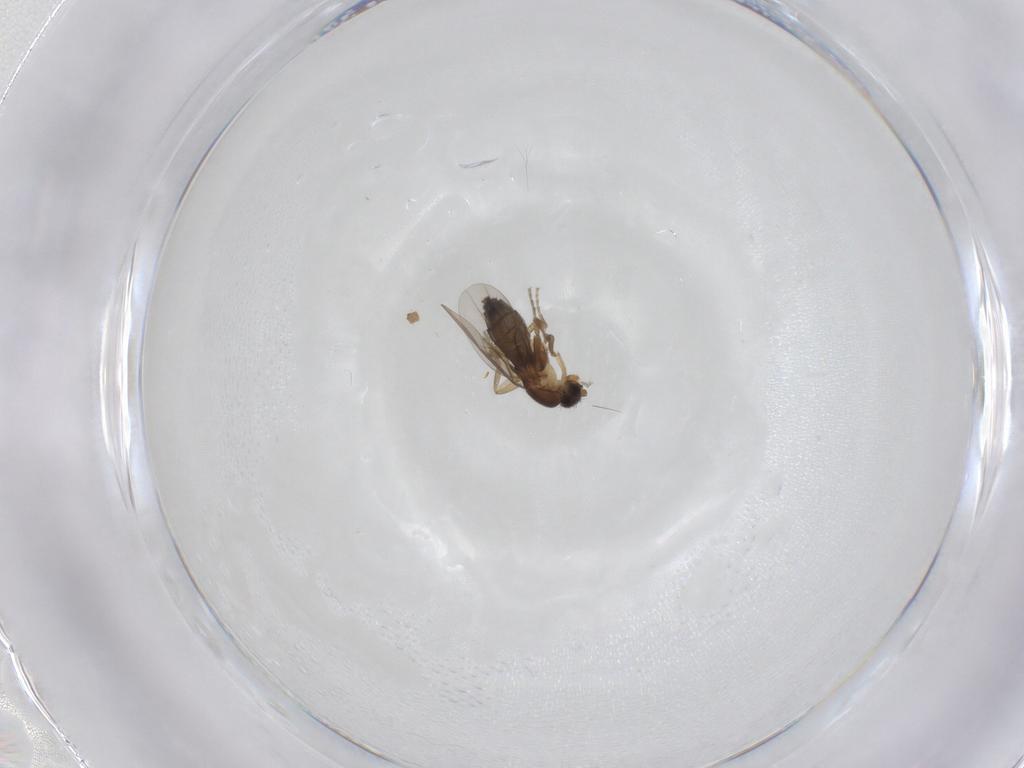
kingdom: Animalia
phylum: Arthropoda
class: Insecta
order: Diptera
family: Phoridae
